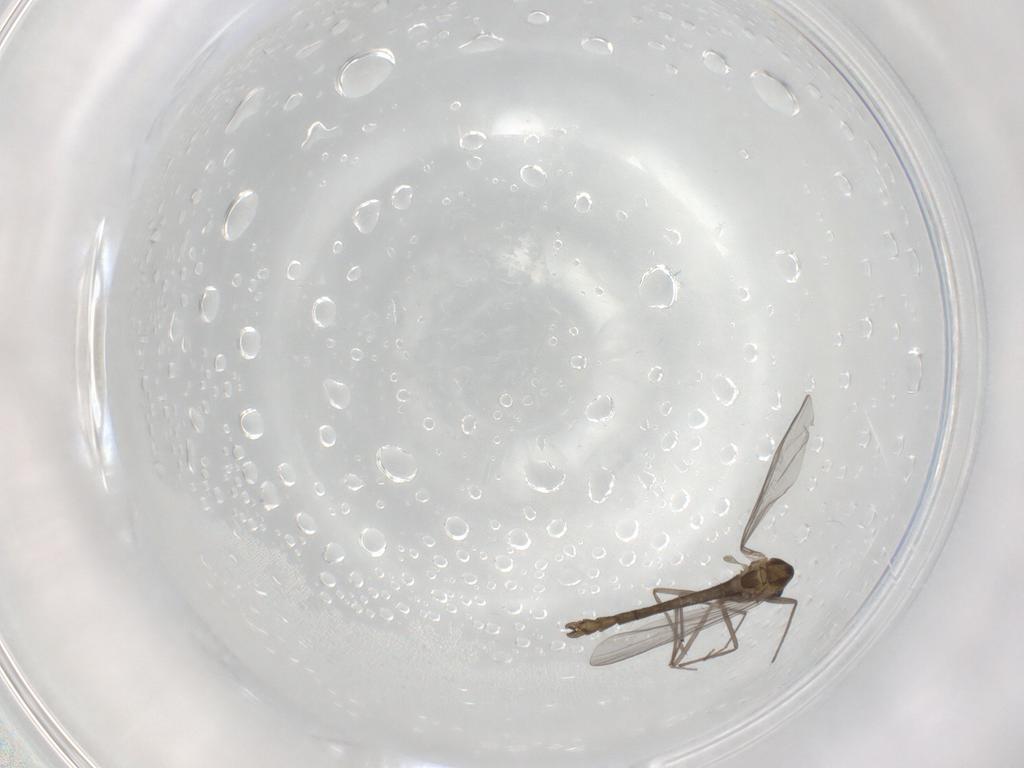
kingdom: Animalia
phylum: Arthropoda
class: Insecta
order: Diptera
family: Chironomidae
